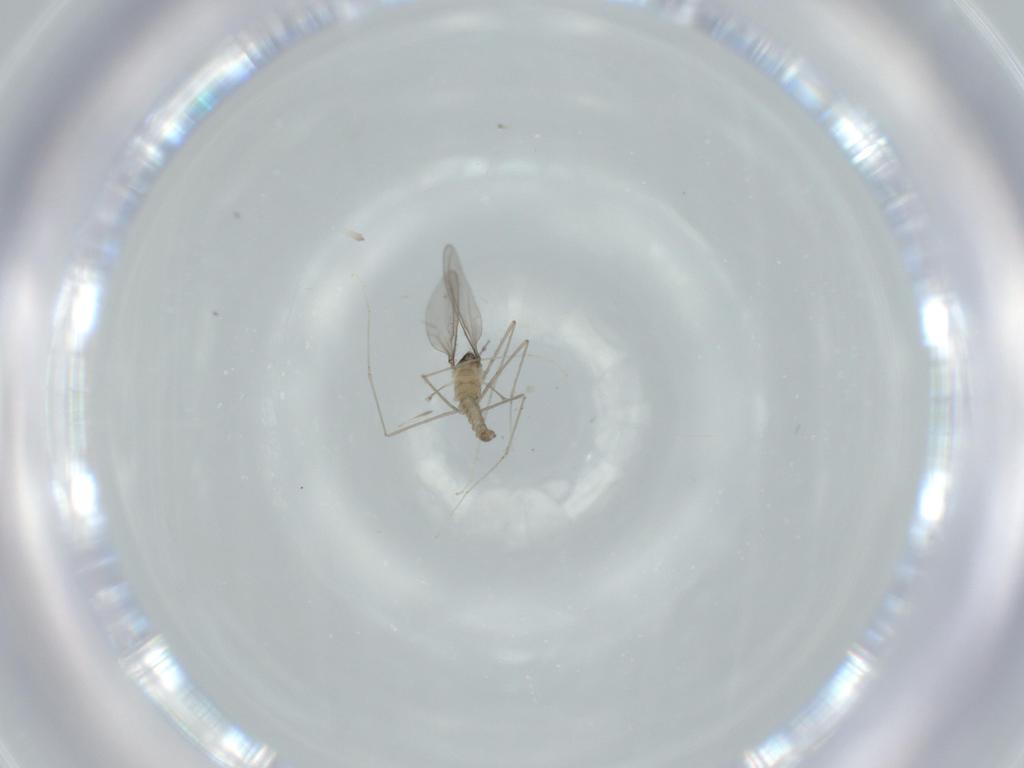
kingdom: Animalia
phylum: Arthropoda
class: Insecta
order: Diptera
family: Cecidomyiidae
